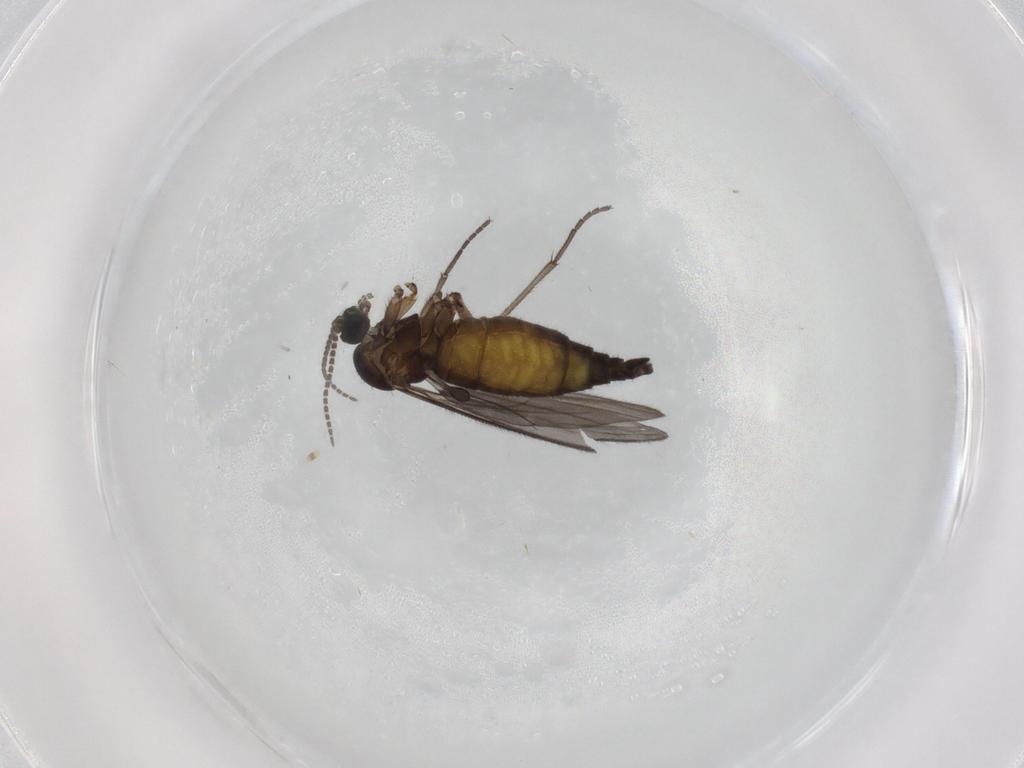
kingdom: Animalia
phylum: Arthropoda
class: Insecta
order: Diptera
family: Sciaridae
